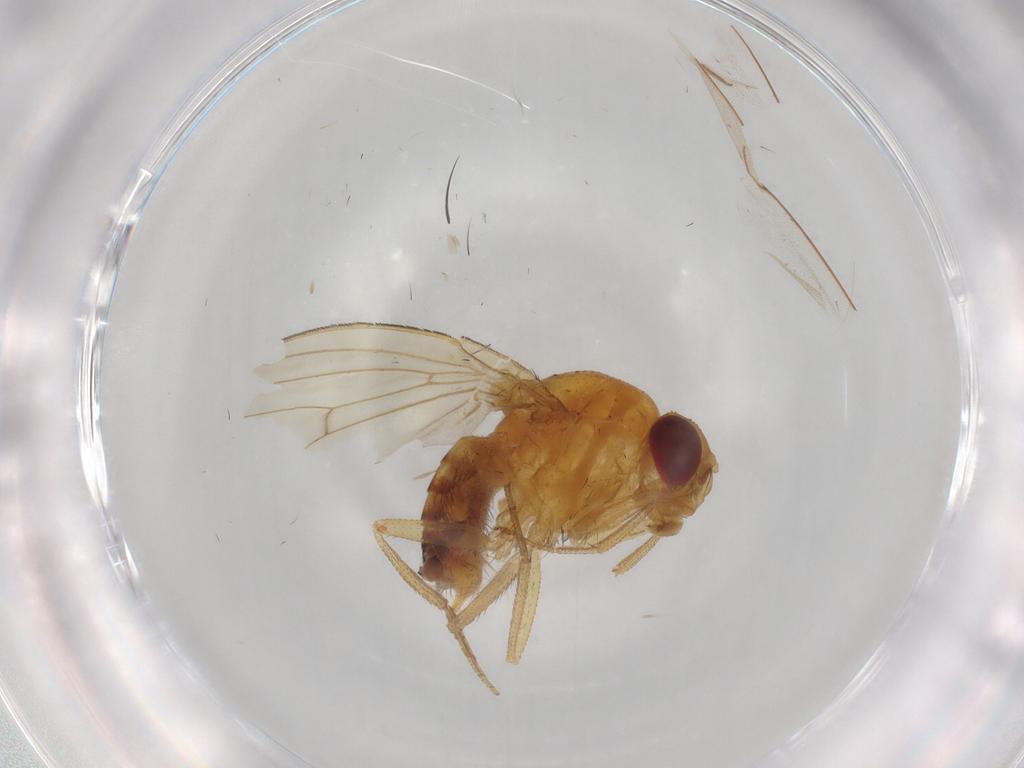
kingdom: Animalia
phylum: Arthropoda
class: Insecta
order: Diptera
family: Drosophilidae
